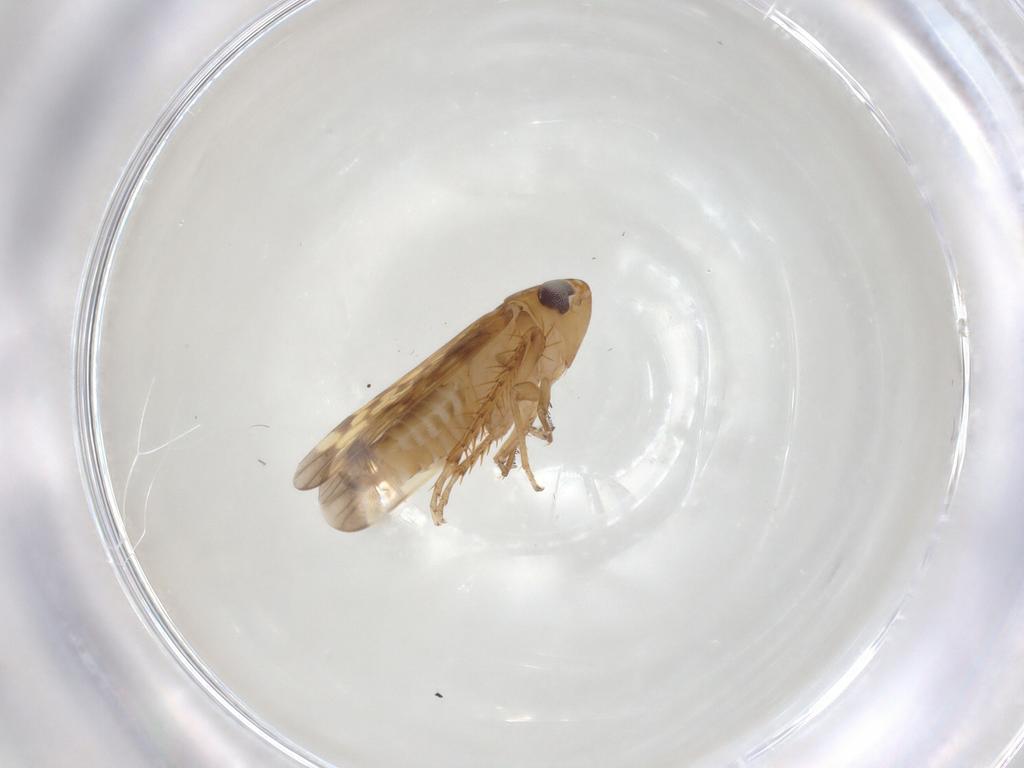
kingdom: Animalia
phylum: Arthropoda
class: Insecta
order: Hemiptera
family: Cicadellidae
